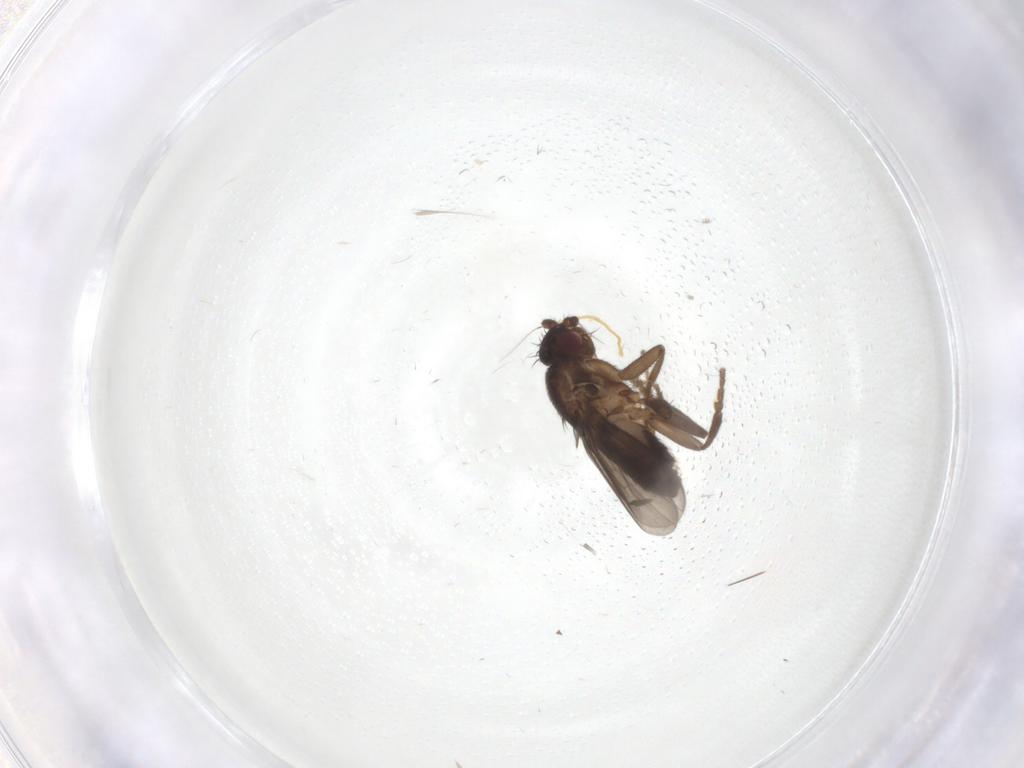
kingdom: Animalia
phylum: Arthropoda
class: Insecta
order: Diptera
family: Sphaeroceridae
